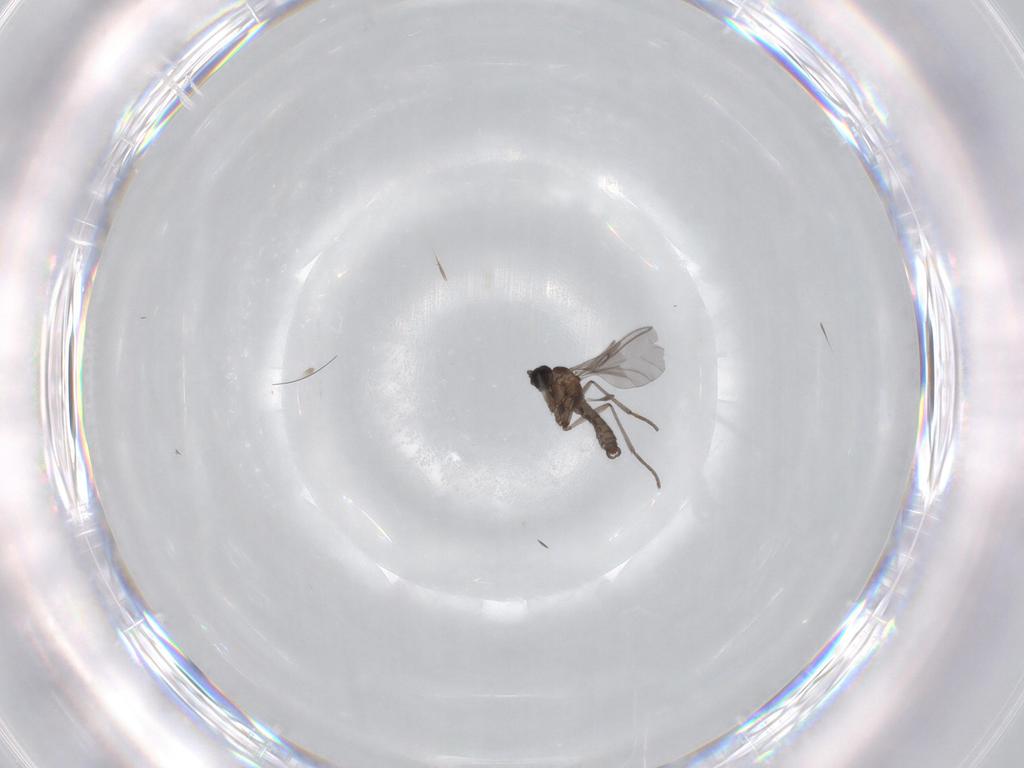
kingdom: Animalia
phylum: Arthropoda
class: Insecta
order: Diptera
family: Sciaridae
